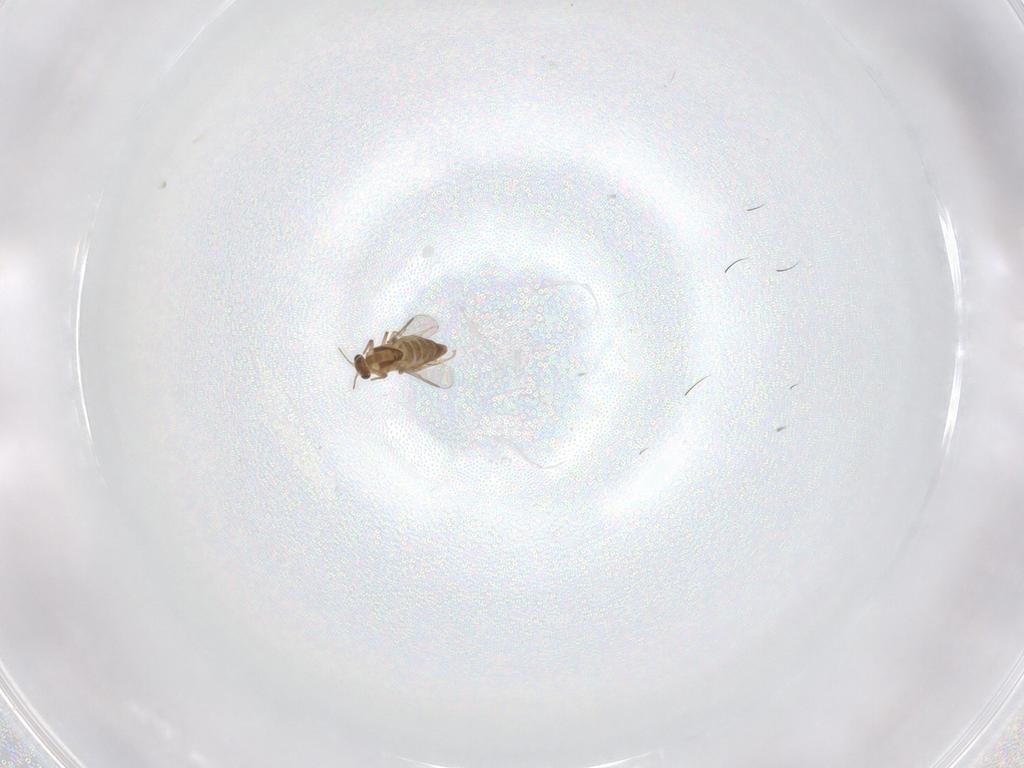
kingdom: Animalia
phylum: Arthropoda
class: Insecta
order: Diptera
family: Chironomidae
